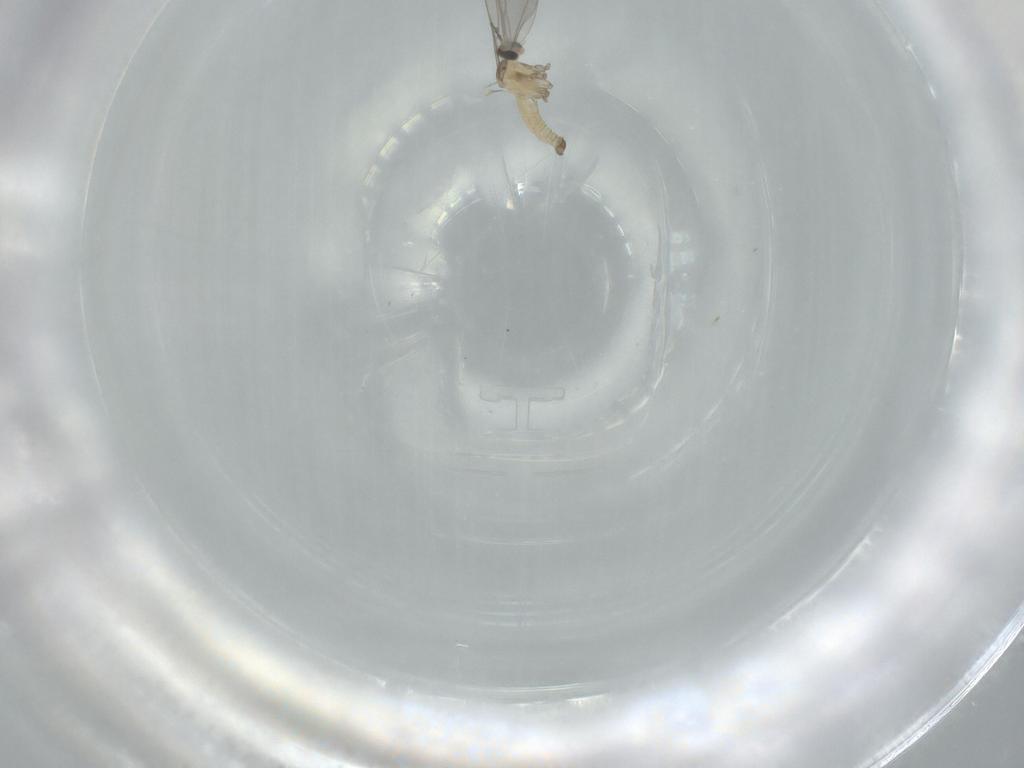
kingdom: Animalia
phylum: Arthropoda
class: Insecta
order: Diptera
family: Cecidomyiidae
